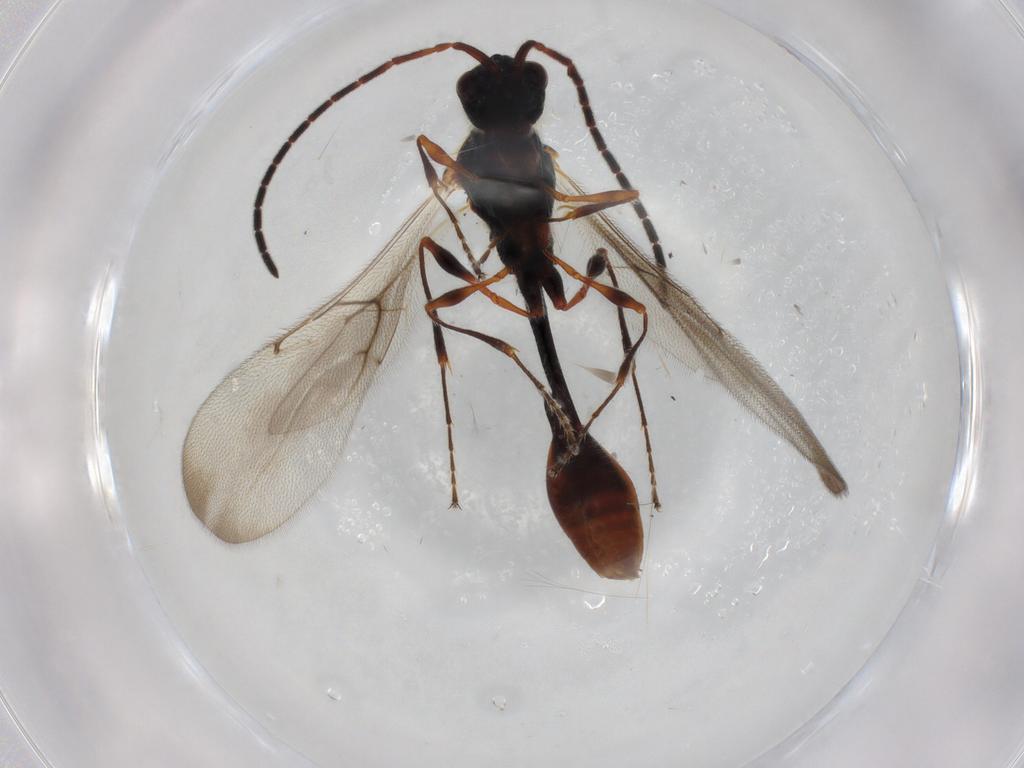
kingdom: Animalia
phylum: Arthropoda
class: Insecta
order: Hymenoptera
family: Diapriidae
